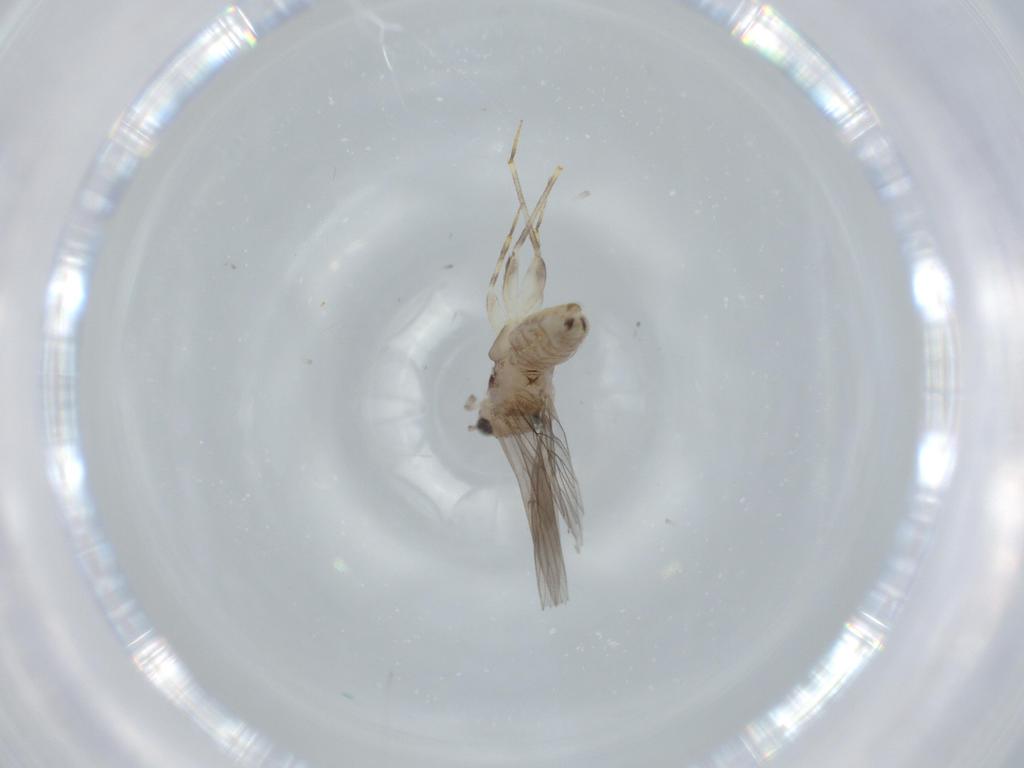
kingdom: Animalia
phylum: Arthropoda
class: Insecta
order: Psocodea
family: Lepidopsocidae
